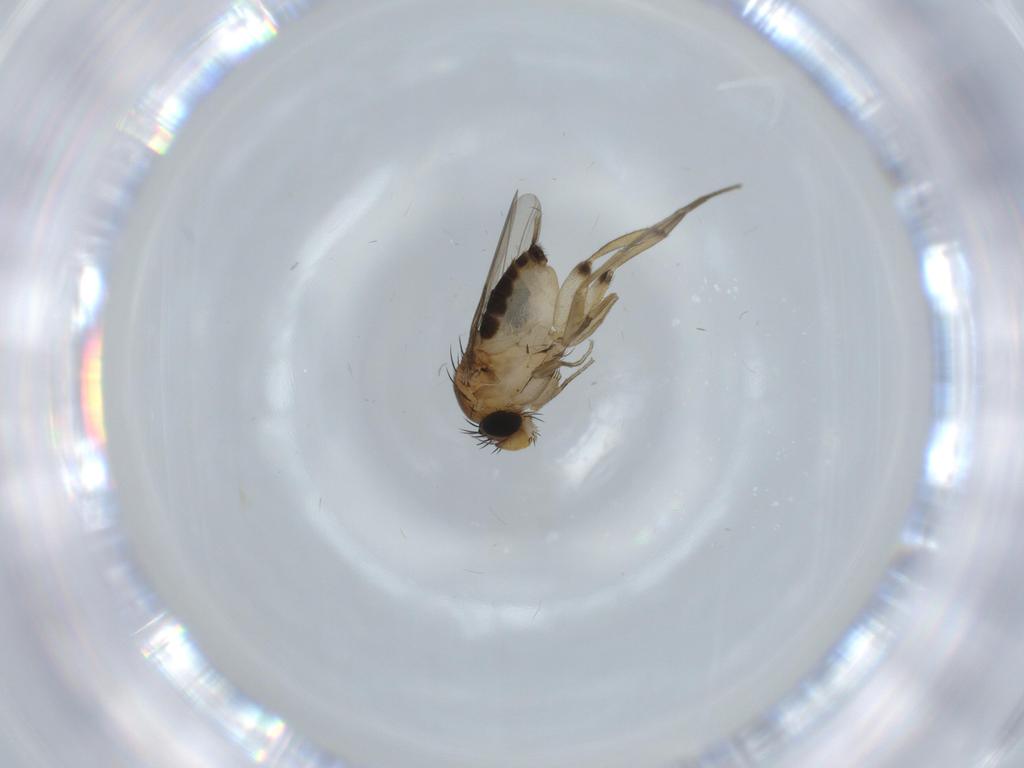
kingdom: Animalia
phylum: Arthropoda
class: Insecta
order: Diptera
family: Phoridae
